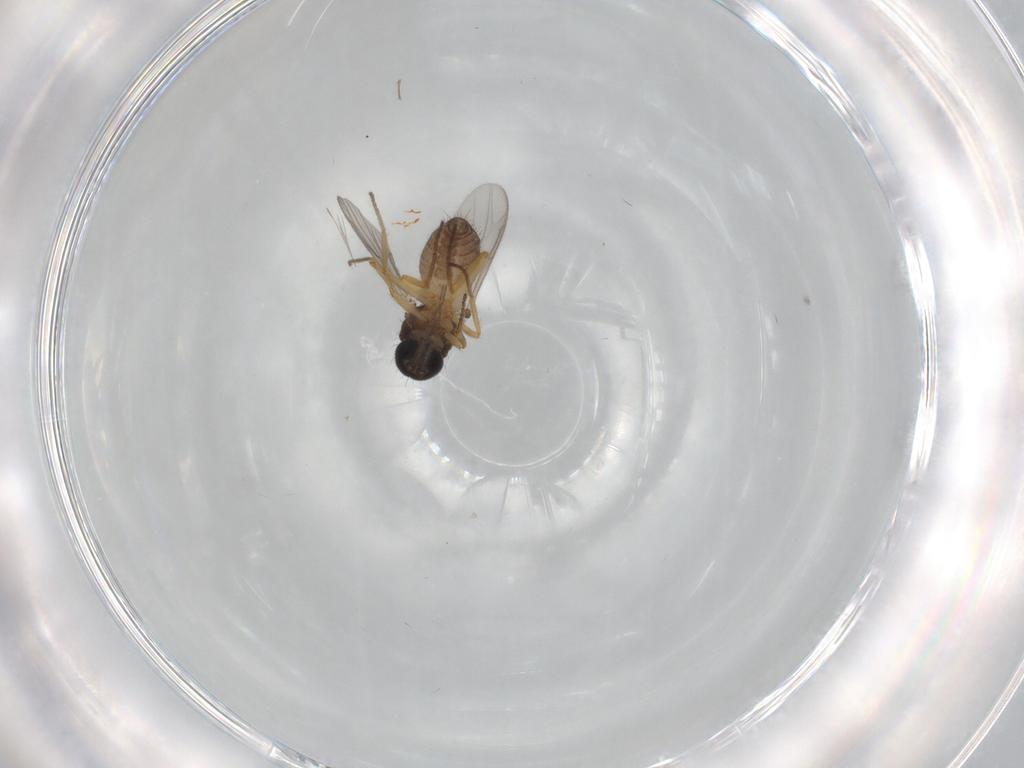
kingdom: Animalia
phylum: Arthropoda
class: Insecta
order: Diptera
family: Ceratopogonidae
